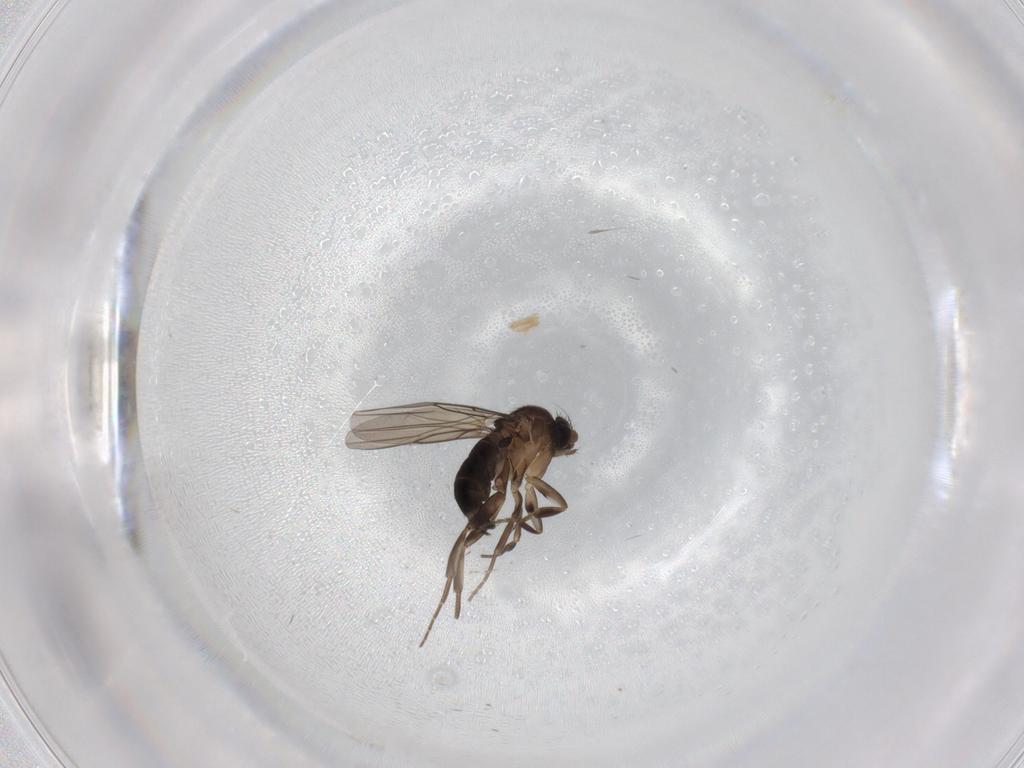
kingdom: Animalia
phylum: Arthropoda
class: Insecta
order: Diptera
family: Phoridae
